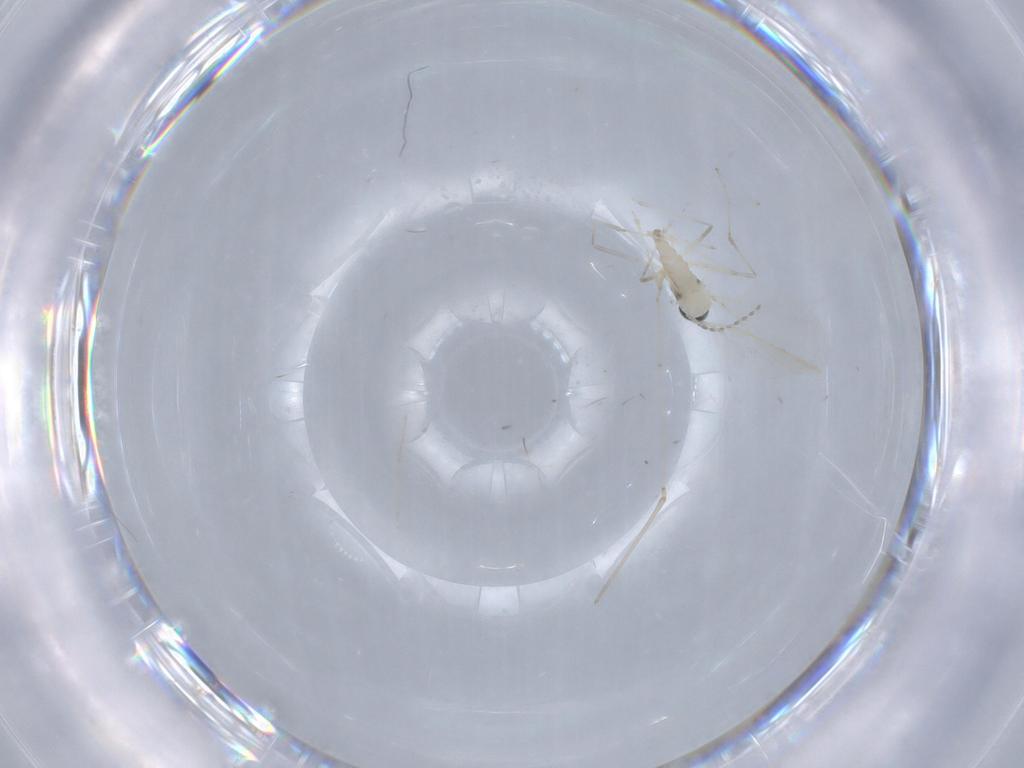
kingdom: Animalia
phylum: Arthropoda
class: Insecta
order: Diptera
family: Cecidomyiidae
